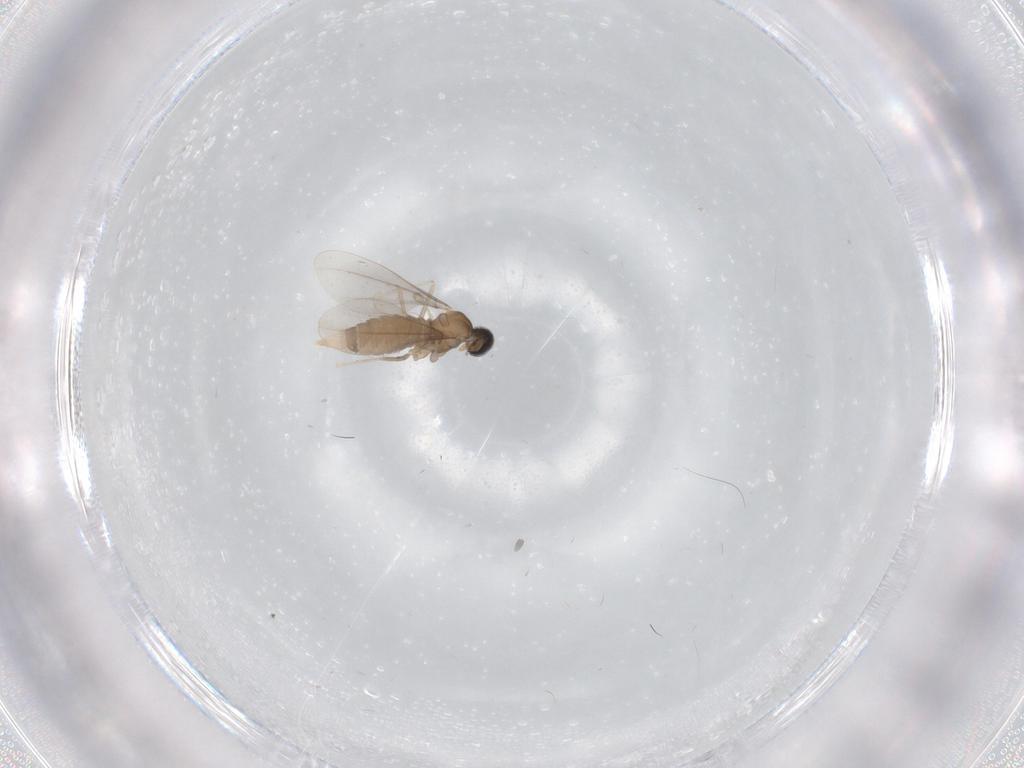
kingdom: Animalia
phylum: Arthropoda
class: Insecta
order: Diptera
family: Cecidomyiidae
